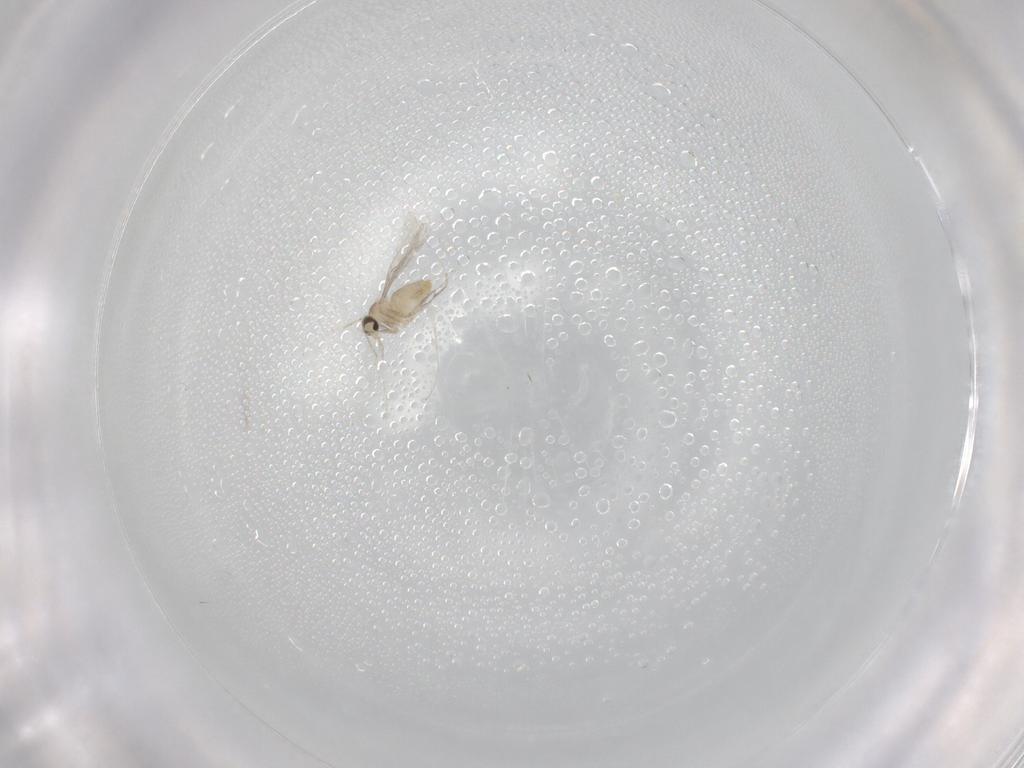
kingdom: Animalia
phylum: Arthropoda
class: Insecta
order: Diptera
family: Cecidomyiidae
